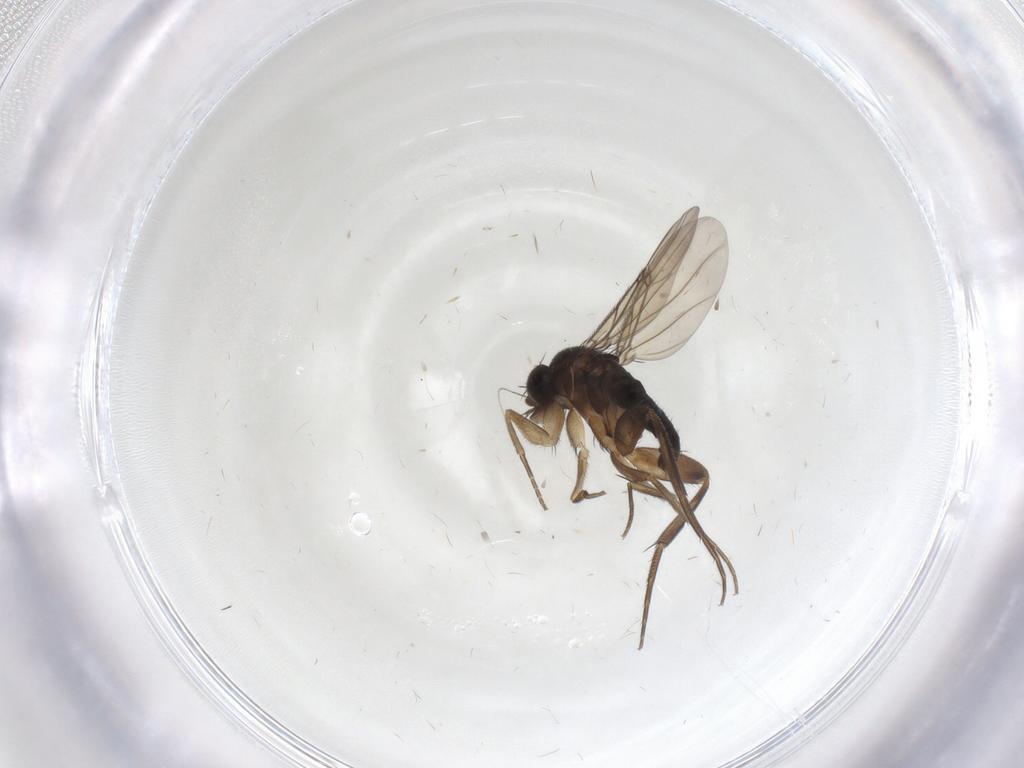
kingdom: Animalia
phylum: Arthropoda
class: Insecta
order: Diptera
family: Phoridae
